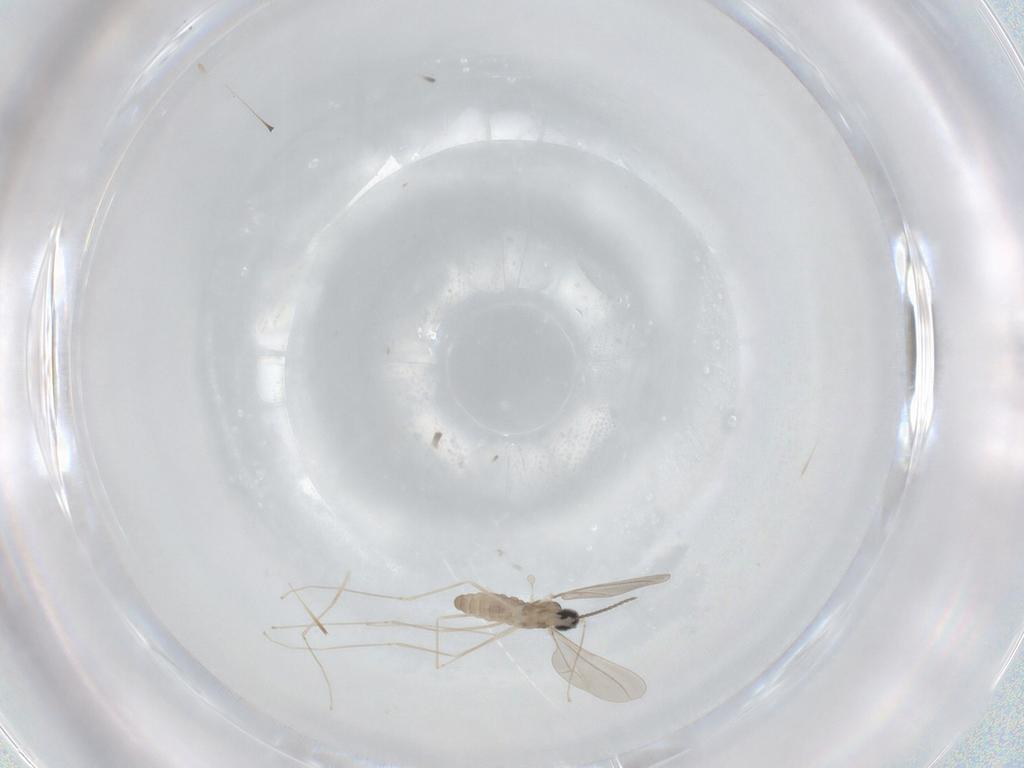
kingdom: Animalia
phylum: Arthropoda
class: Insecta
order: Diptera
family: Cecidomyiidae
